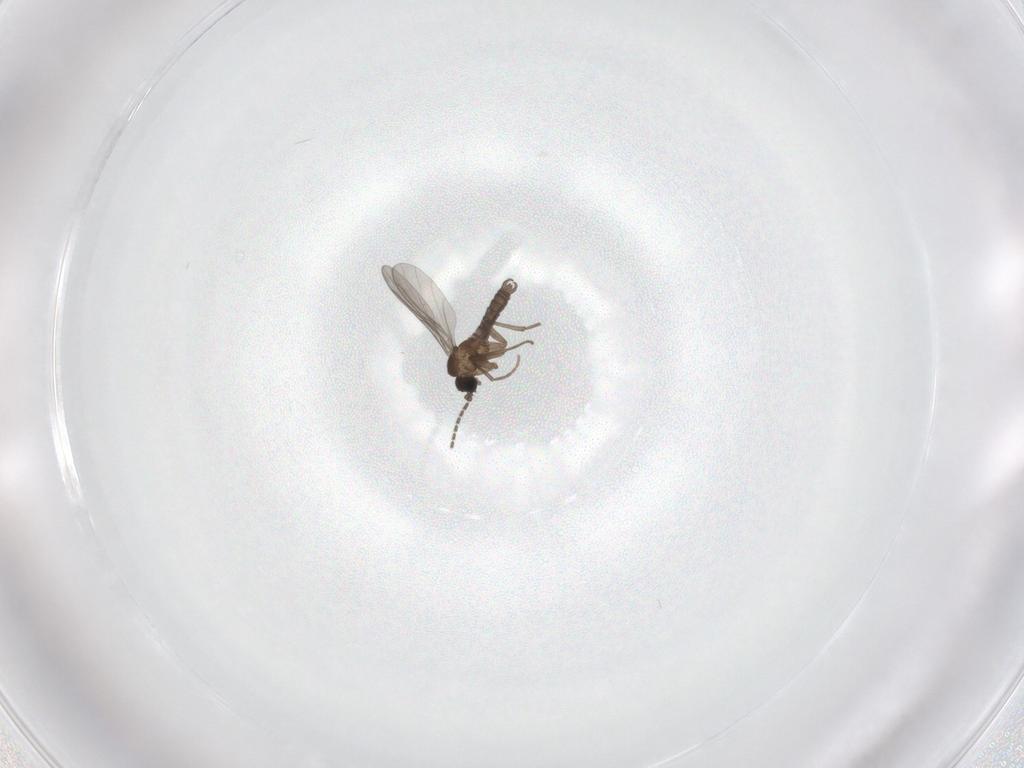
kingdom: Animalia
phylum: Arthropoda
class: Insecta
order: Diptera
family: Sciaridae
